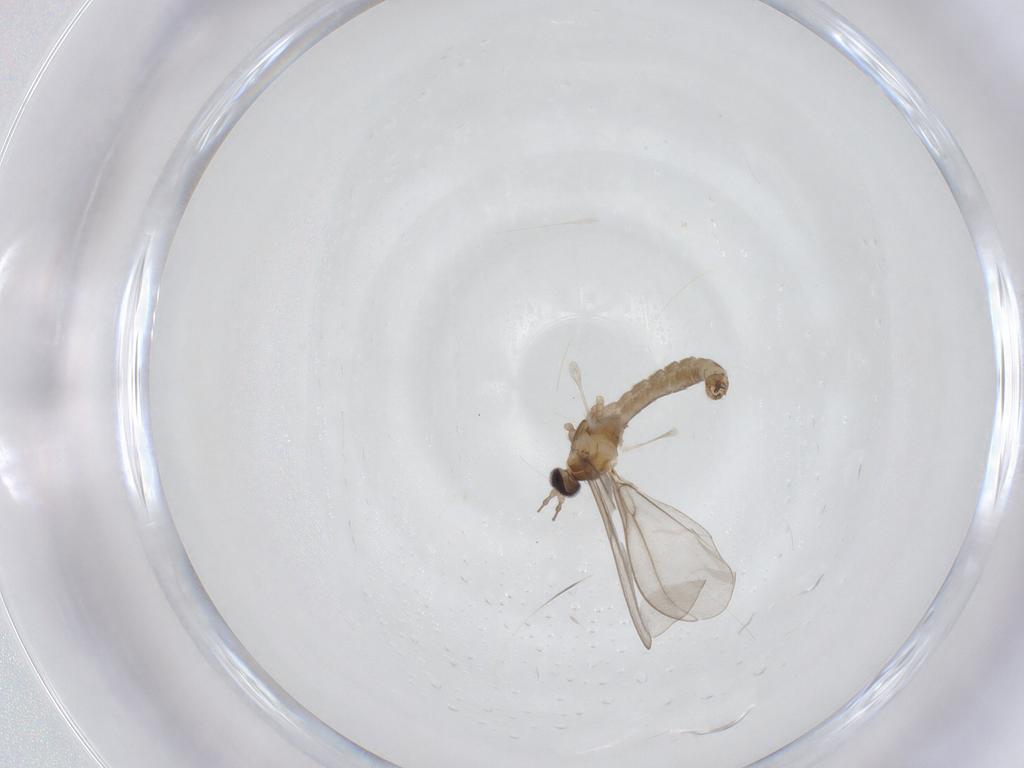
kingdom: Animalia
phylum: Arthropoda
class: Insecta
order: Diptera
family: Cecidomyiidae
